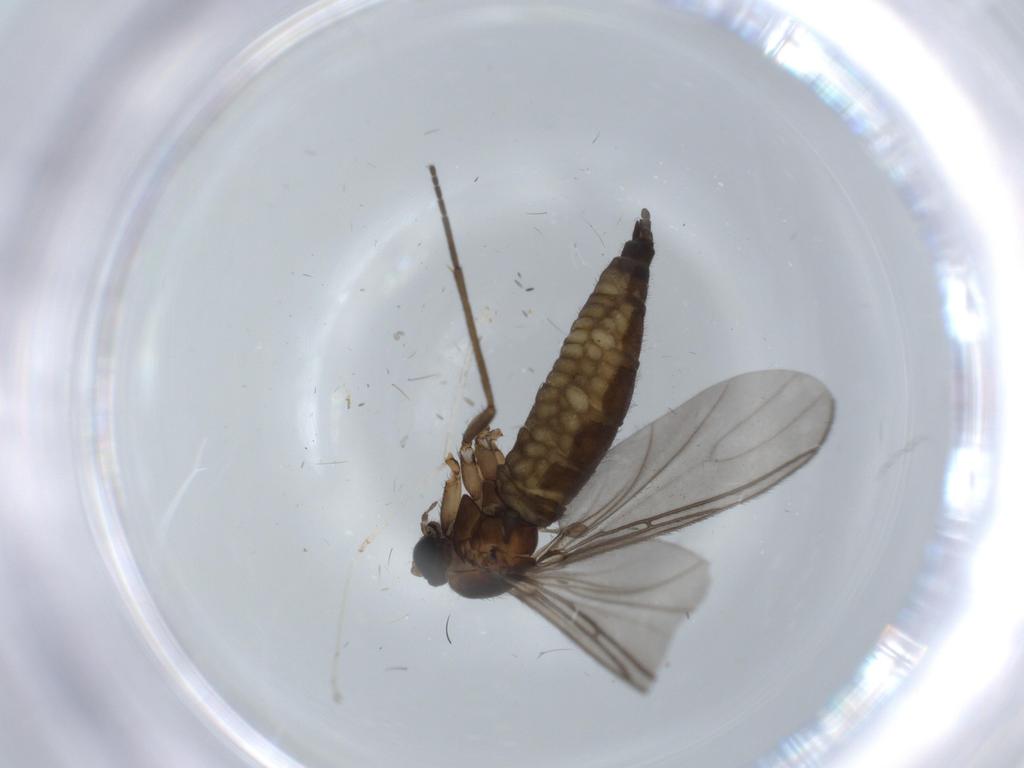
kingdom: Animalia
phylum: Arthropoda
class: Insecta
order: Diptera
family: Sciaridae
